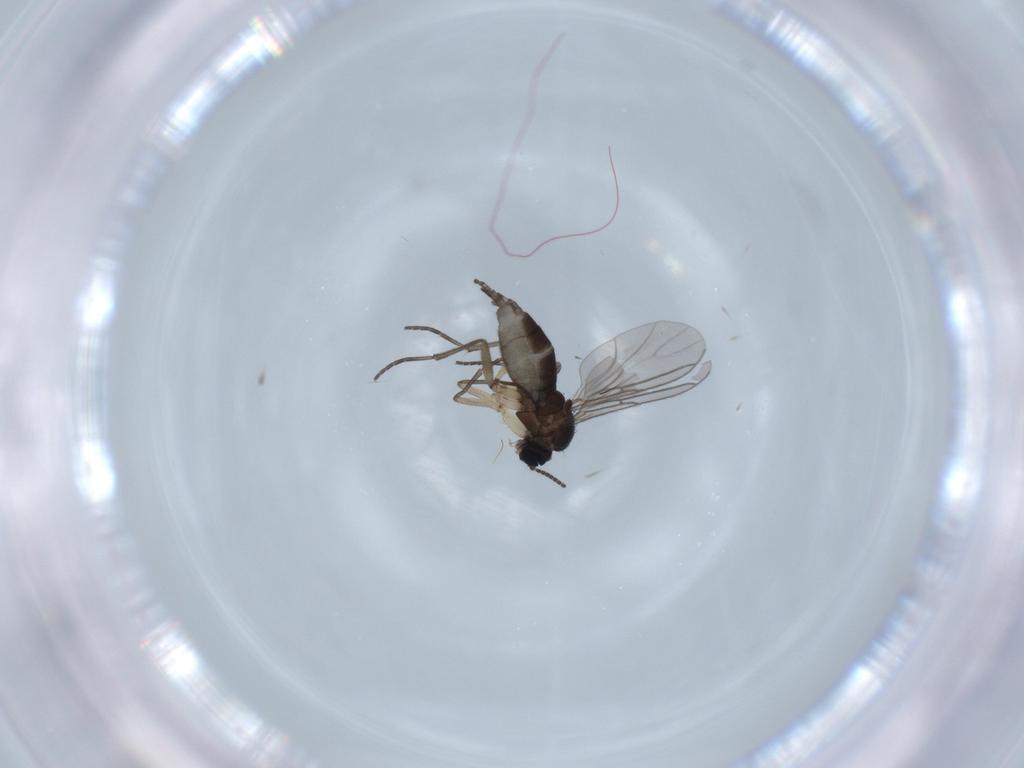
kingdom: Animalia
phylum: Arthropoda
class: Insecta
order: Diptera
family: Sciaridae
